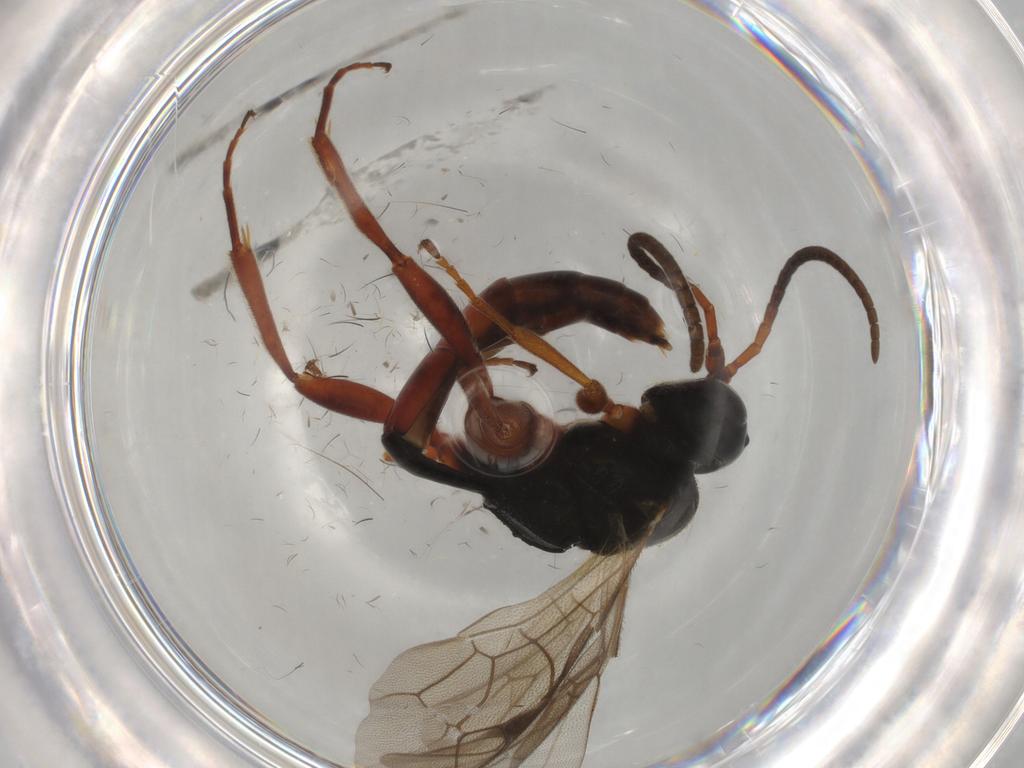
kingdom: Animalia
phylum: Arthropoda
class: Insecta
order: Hymenoptera
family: Ichneumonidae
